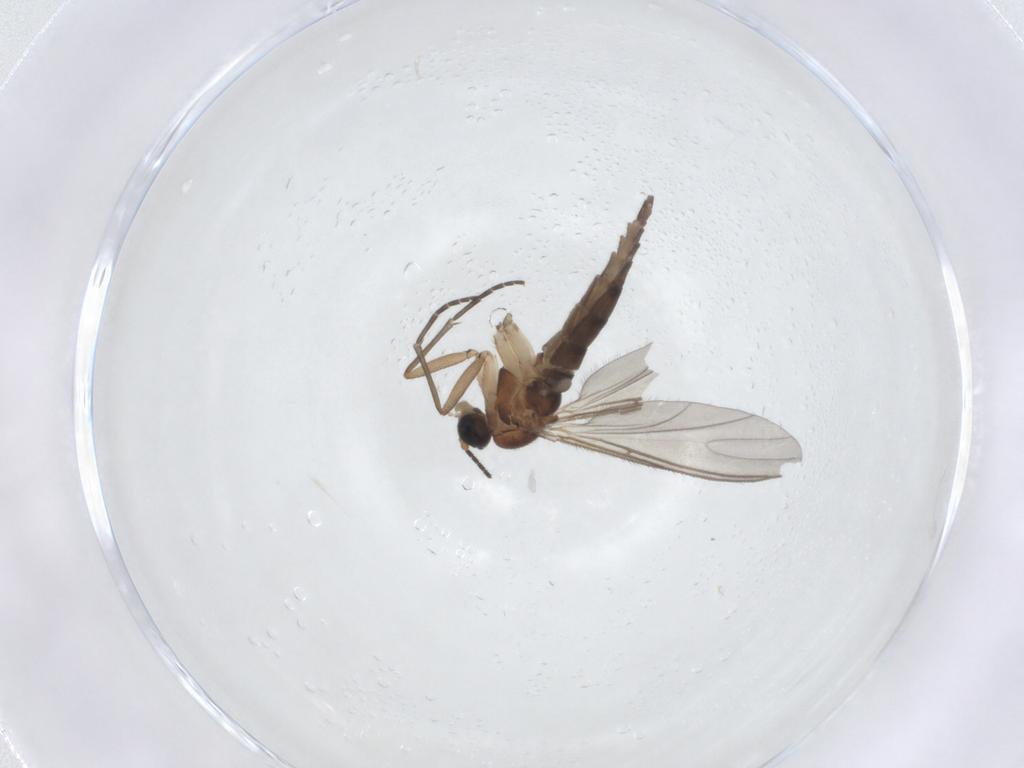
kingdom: Animalia
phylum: Arthropoda
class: Insecta
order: Diptera
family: Sciaridae
